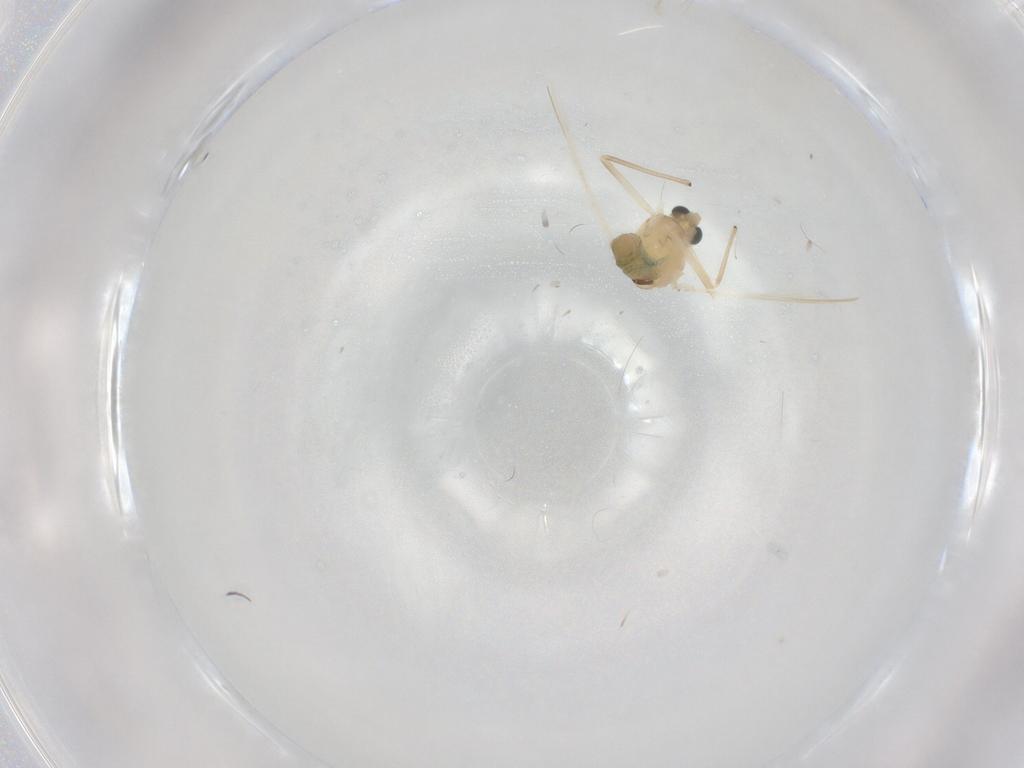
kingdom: Animalia
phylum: Arthropoda
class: Insecta
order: Diptera
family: Chironomidae
